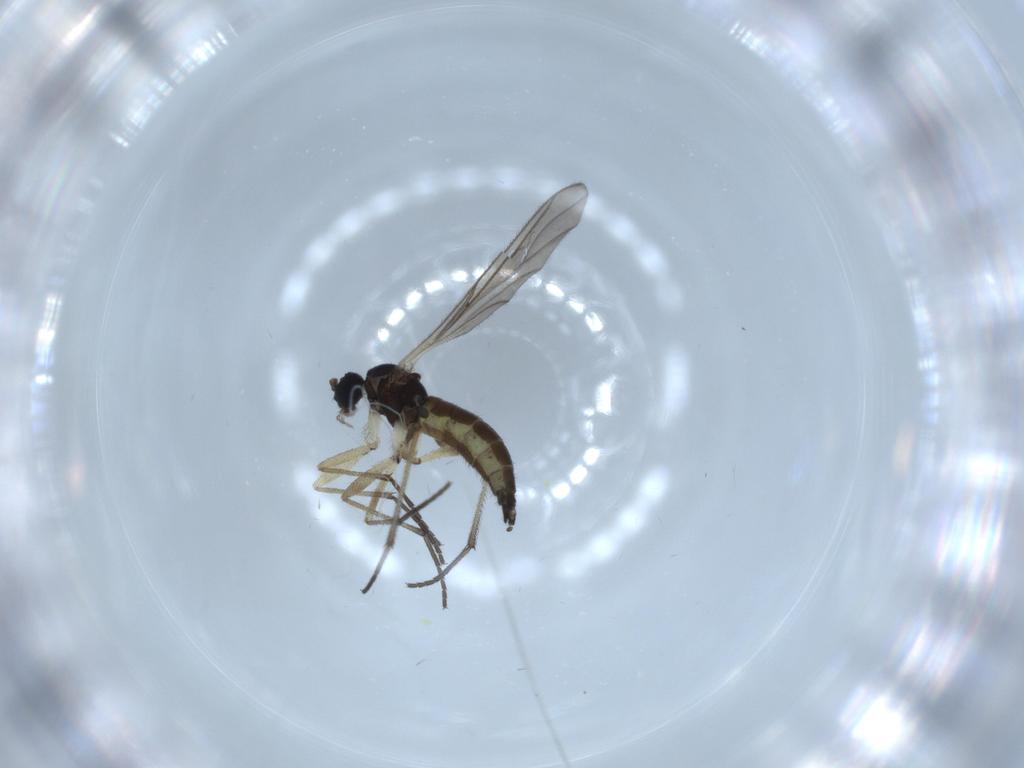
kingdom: Animalia
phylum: Arthropoda
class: Insecta
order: Diptera
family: Sciaridae
